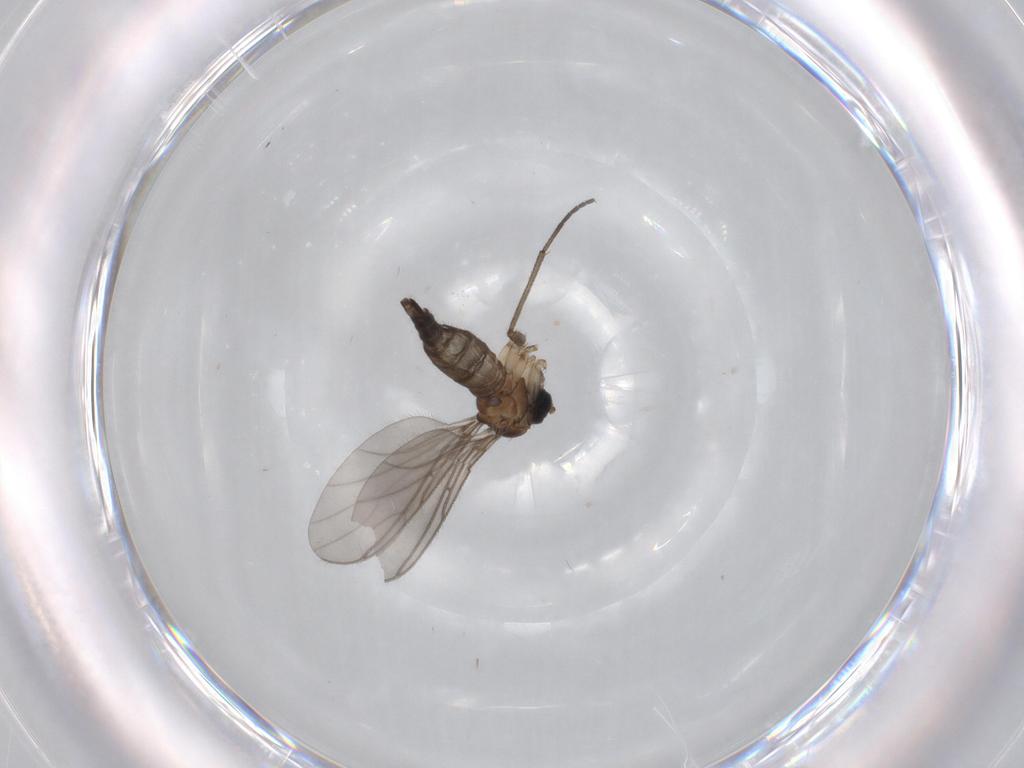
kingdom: Animalia
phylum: Arthropoda
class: Insecta
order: Diptera
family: Sciaridae
